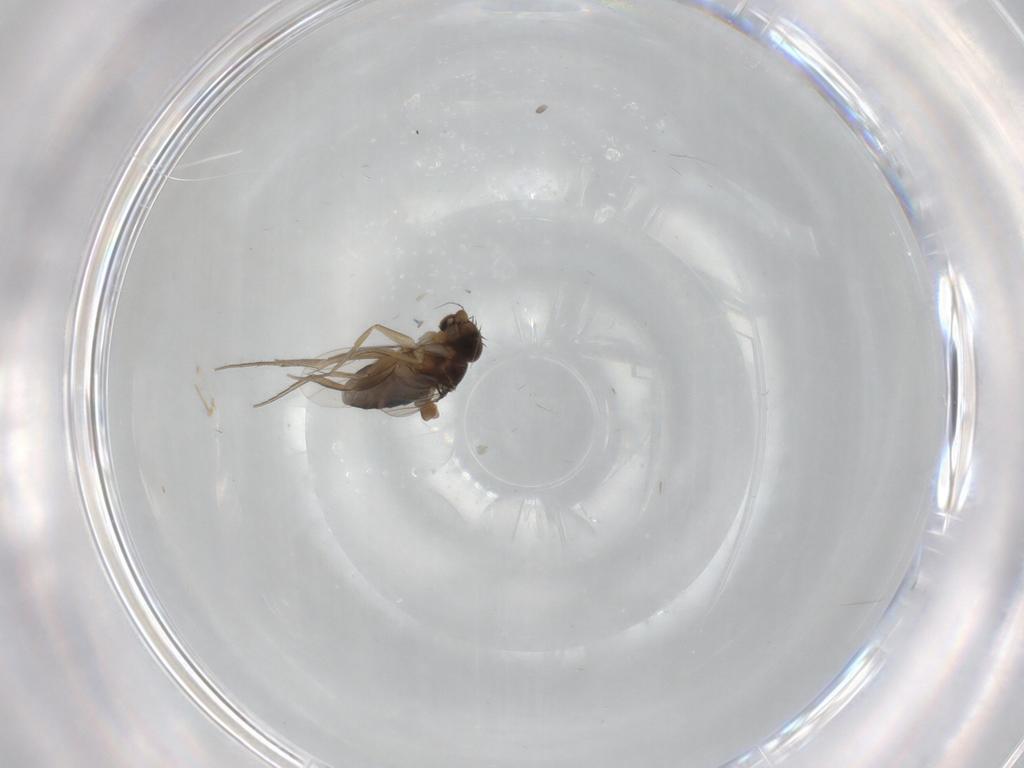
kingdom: Animalia
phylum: Arthropoda
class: Insecta
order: Diptera
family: Phoridae
